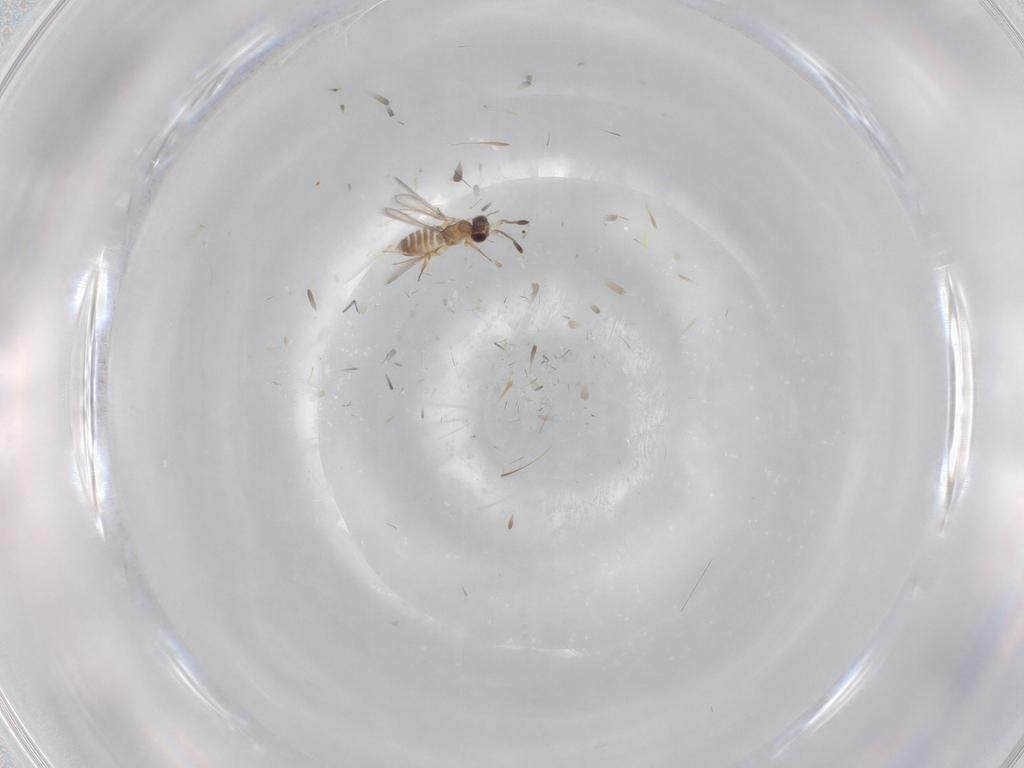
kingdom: Animalia
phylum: Arthropoda
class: Insecta
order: Hymenoptera
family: Mymaridae
